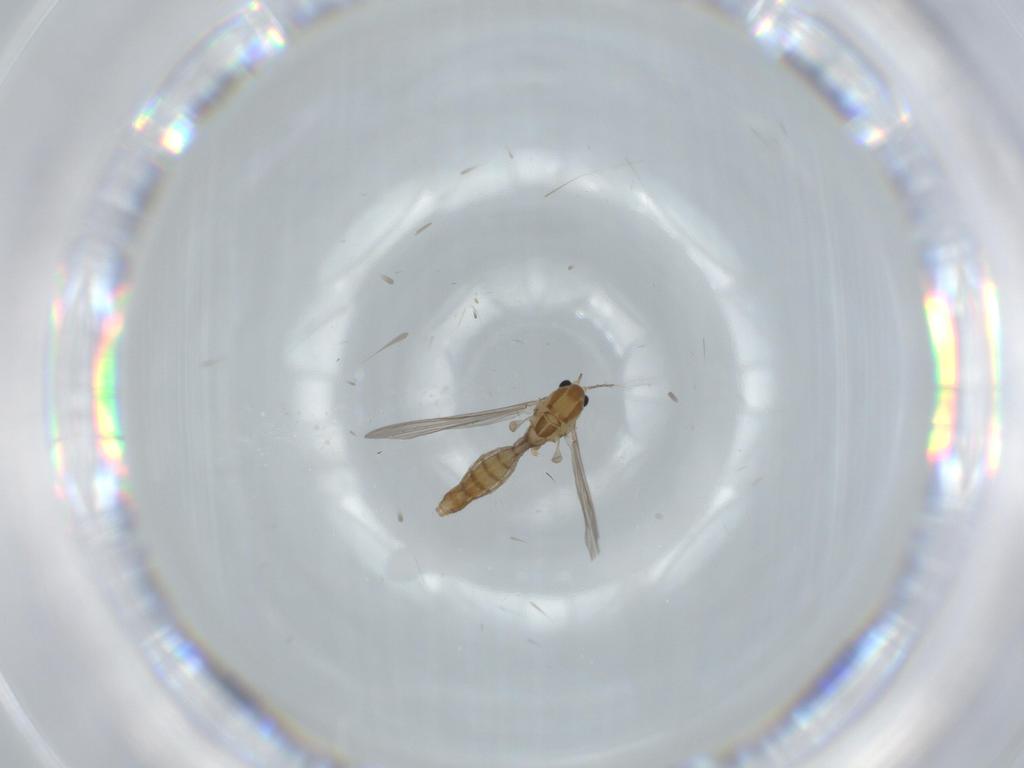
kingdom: Animalia
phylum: Arthropoda
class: Insecta
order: Diptera
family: Chironomidae
